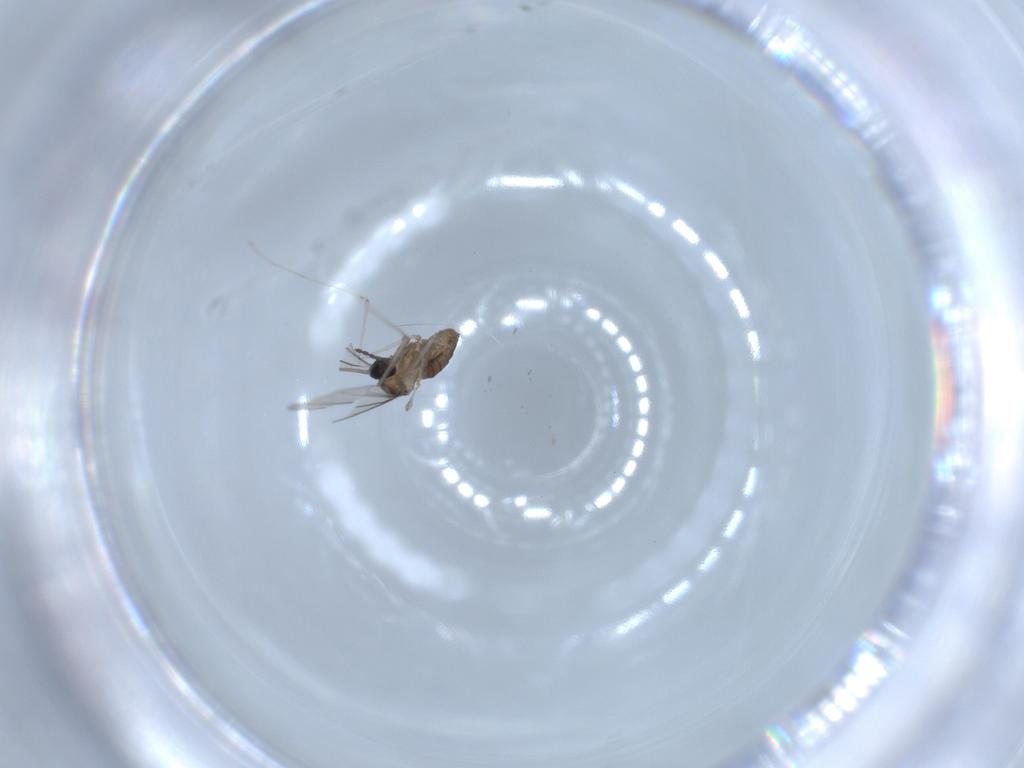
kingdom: Animalia
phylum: Arthropoda
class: Insecta
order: Diptera
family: Cecidomyiidae
